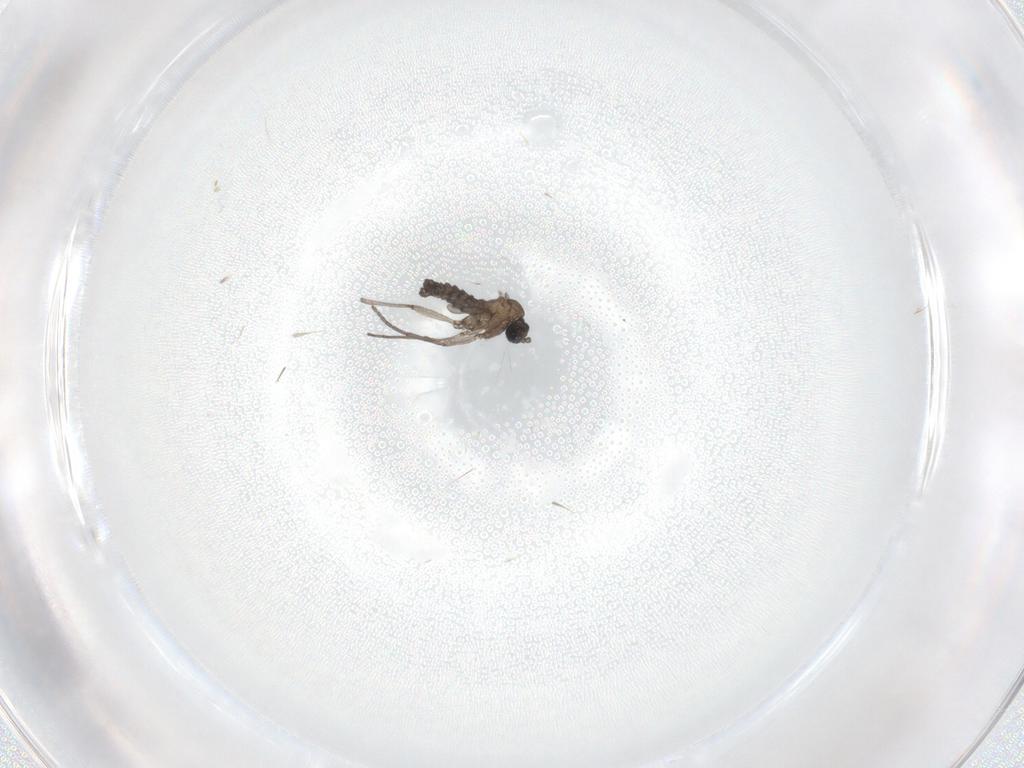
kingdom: Animalia
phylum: Arthropoda
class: Insecta
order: Diptera
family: Sciaridae
